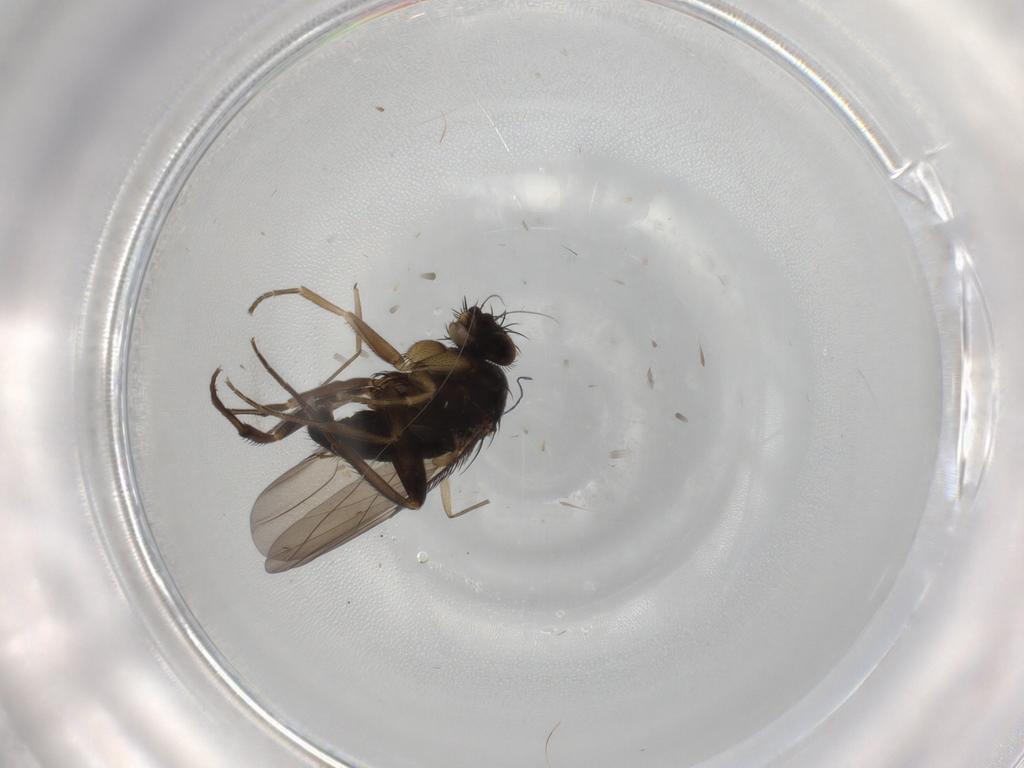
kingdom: Animalia
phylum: Arthropoda
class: Insecta
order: Diptera
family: Phoridae
